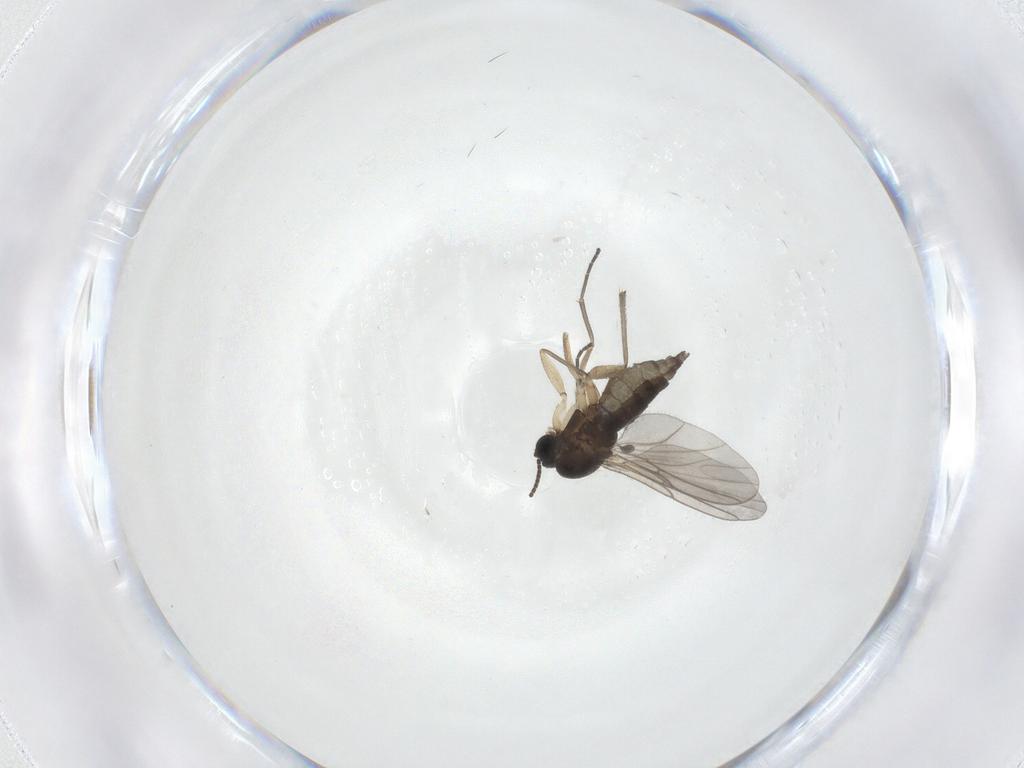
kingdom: Animalia
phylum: Arthropoda
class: Insecta
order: Diptera
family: Sciaridae
